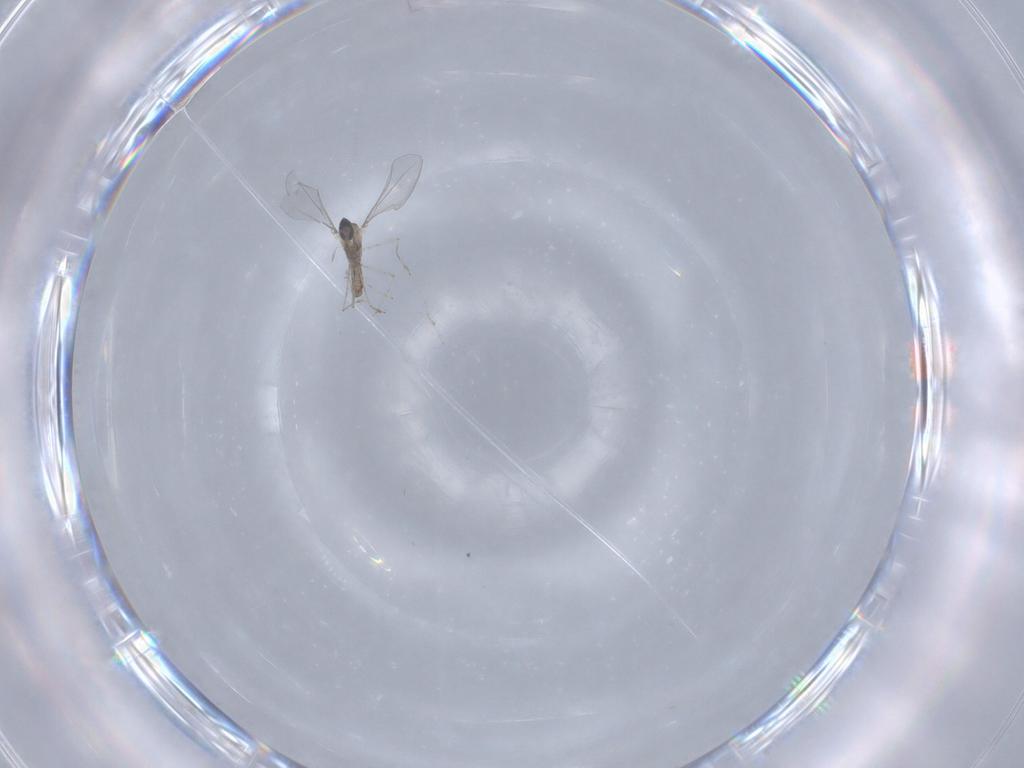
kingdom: Animalia
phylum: Arthropoda
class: Insecta
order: Diptera
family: Cecidomyiidae
